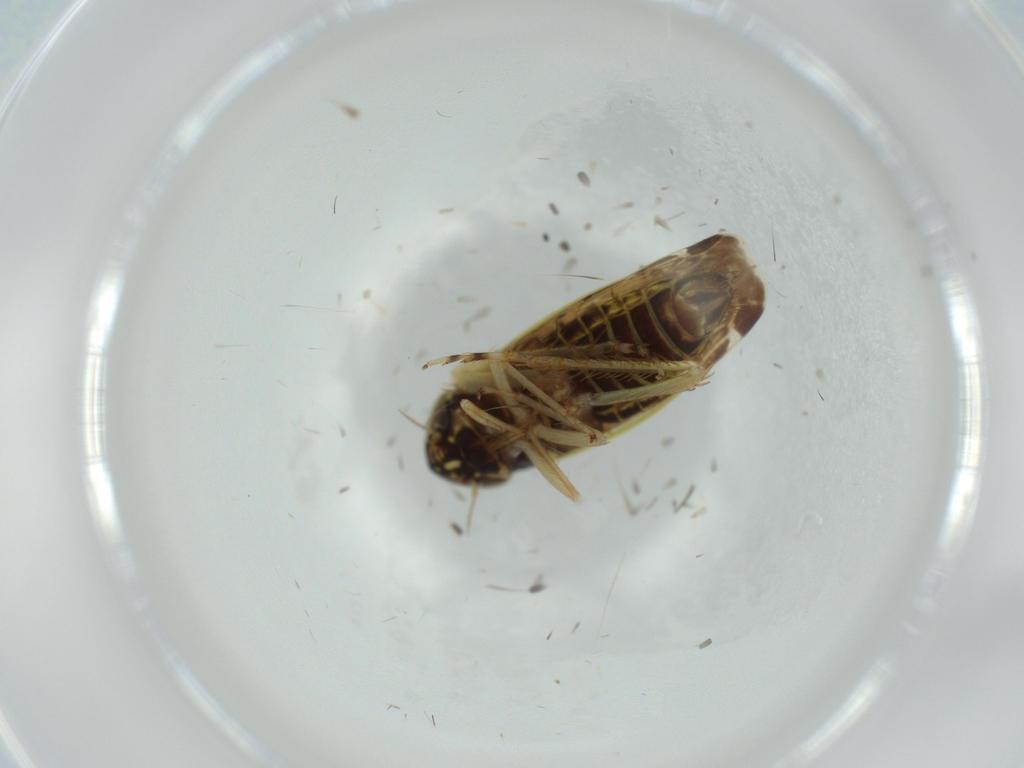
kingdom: Animalia
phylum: Arthropoda
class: Insecta
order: Hemiptera
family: Cicadellidae
